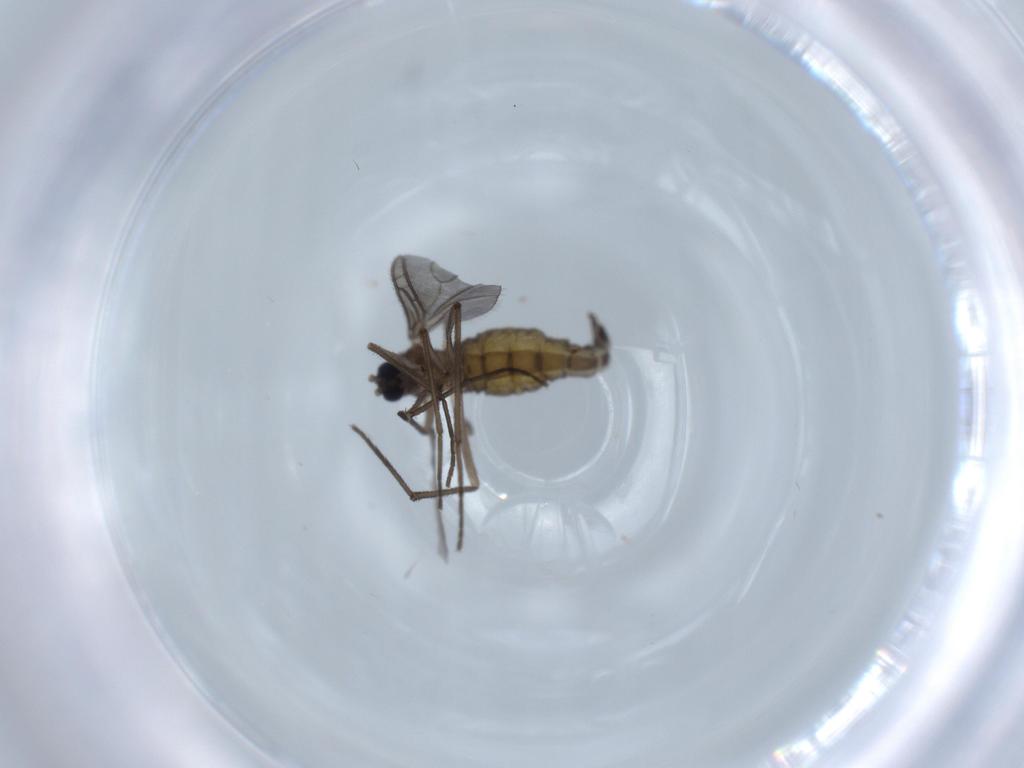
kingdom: Animalia
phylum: Arthropoda
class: Insecta
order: Diptera
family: Sciaridae
